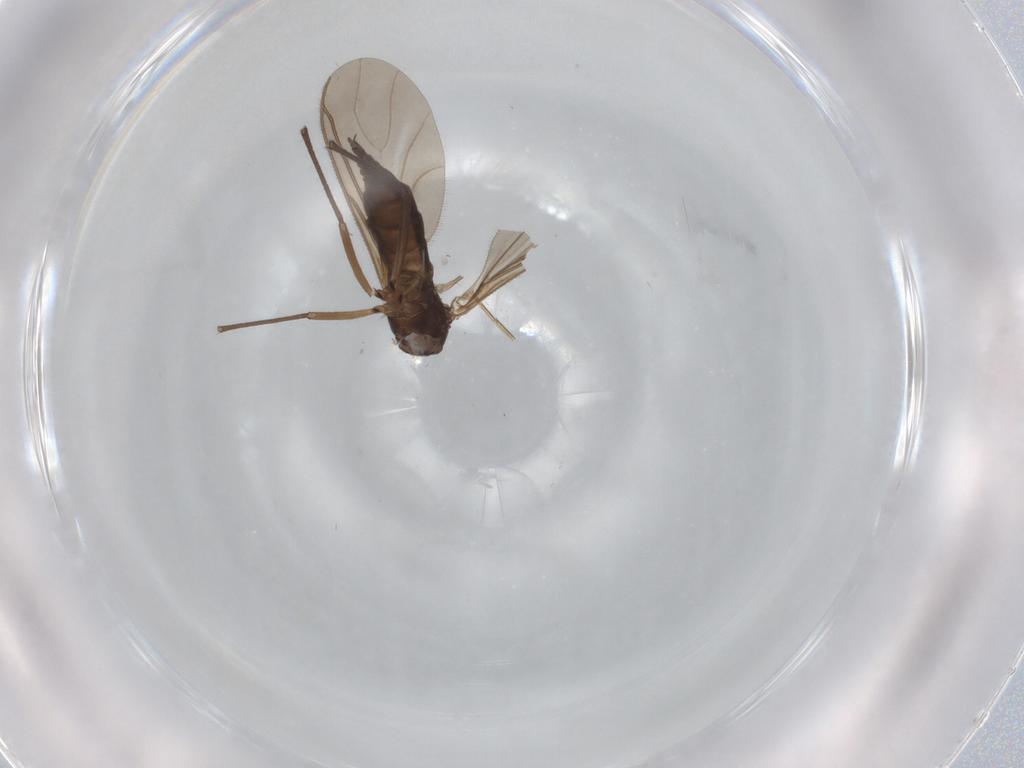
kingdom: Animalia
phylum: Arthropoda
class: Insecta
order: Diptera
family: Sciaridae
